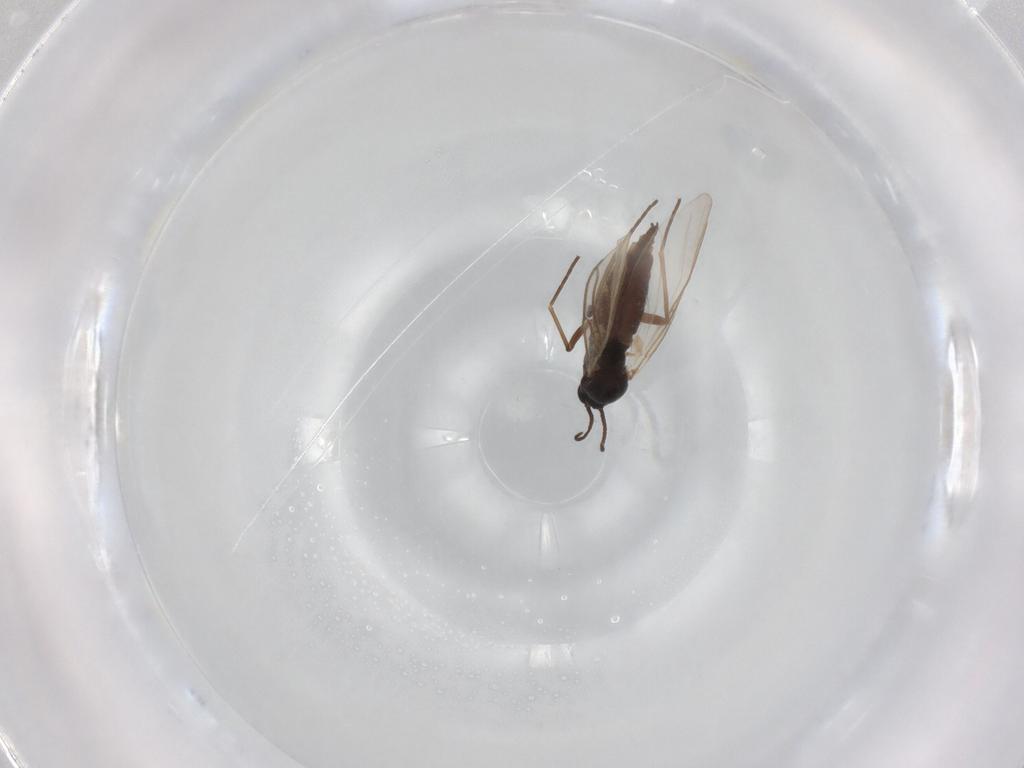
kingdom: Animalia
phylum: Arthropoda
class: Insecta
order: Diptera
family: Sciaridae
